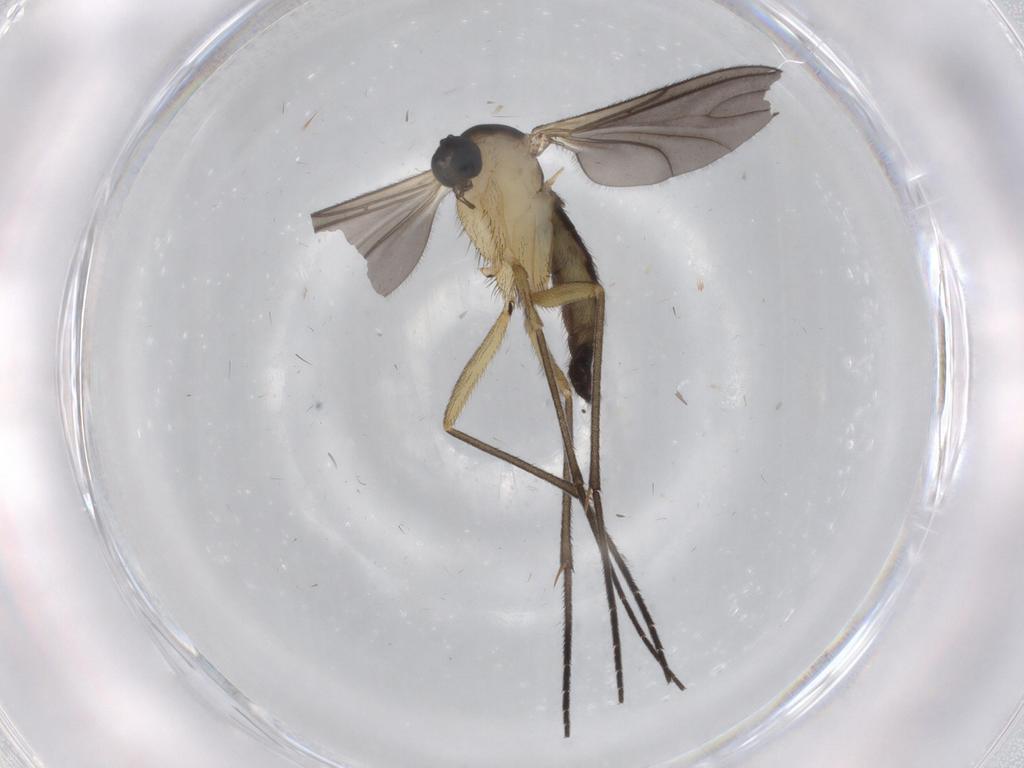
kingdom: Animalia
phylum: Arthropoda
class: Insecta
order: Diptera
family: Sciaridae
